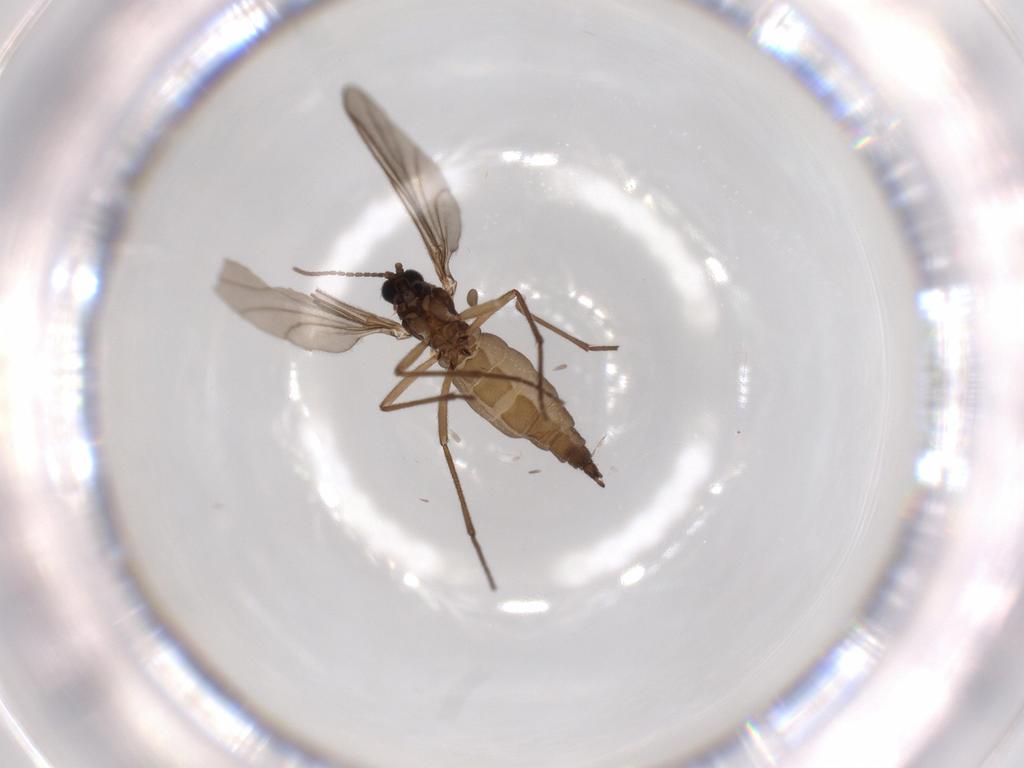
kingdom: Animalia
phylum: Arthropoda
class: Insecta
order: Diptera
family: Sciaridae
